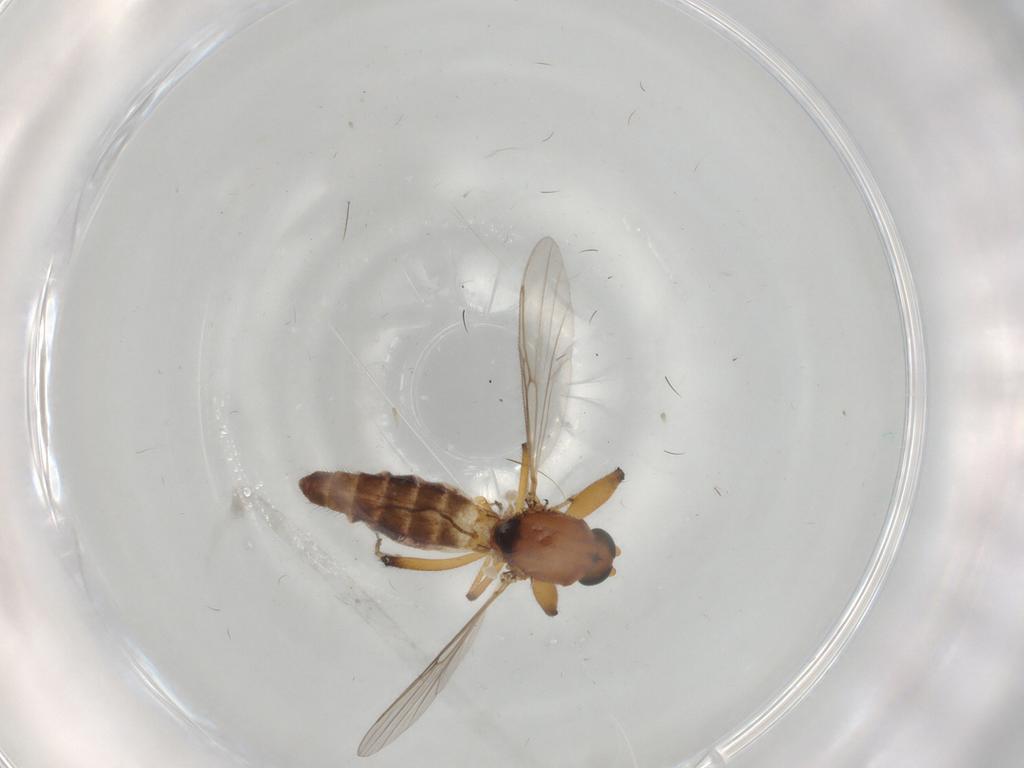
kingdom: Animalia
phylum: Arthropoda
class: Insecta
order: Diptera
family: Ceratopogonidae
